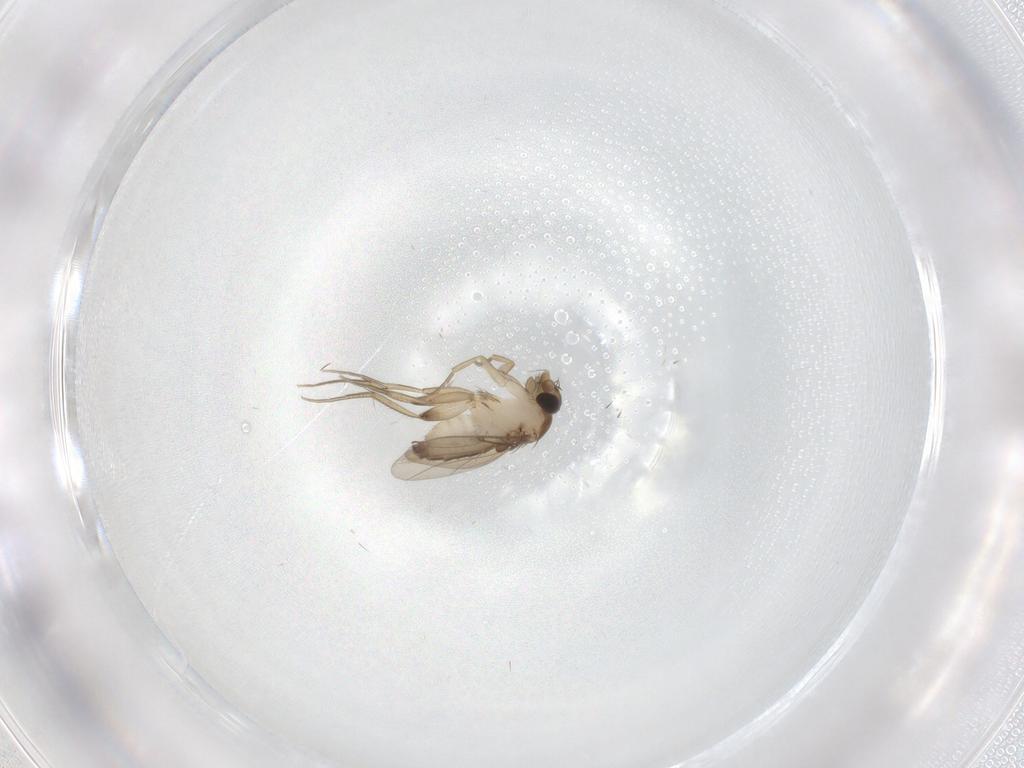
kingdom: Animalia
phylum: Arthropoda
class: Insecta
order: Diptera
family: Phoridae
